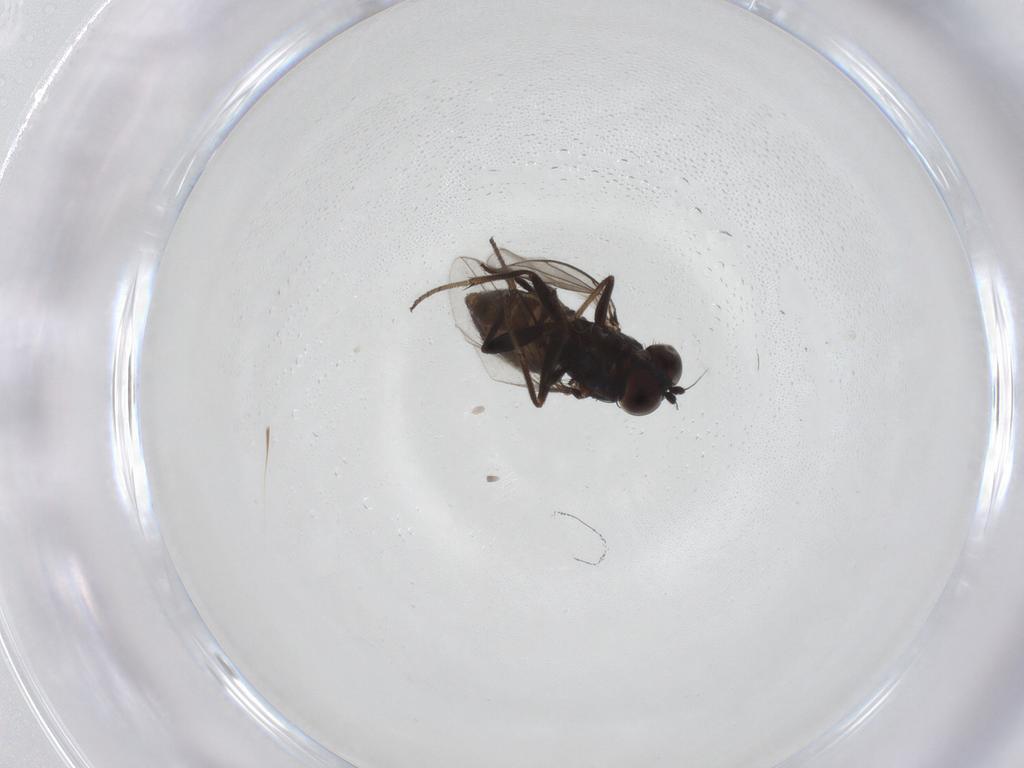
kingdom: Animalia
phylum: Arthropoda
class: Insecta
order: Diptera
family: Dolichopodidae
